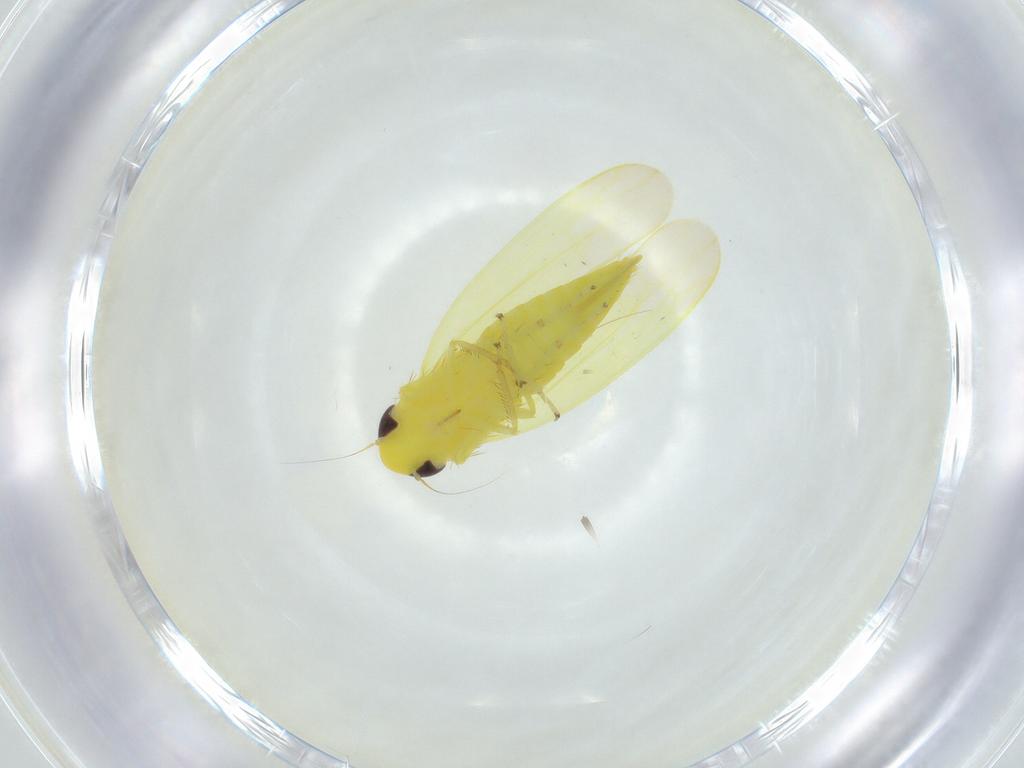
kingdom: Animalia
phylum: Arthropoda
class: Insecta
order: Hemiptera
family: Cicadellidae
